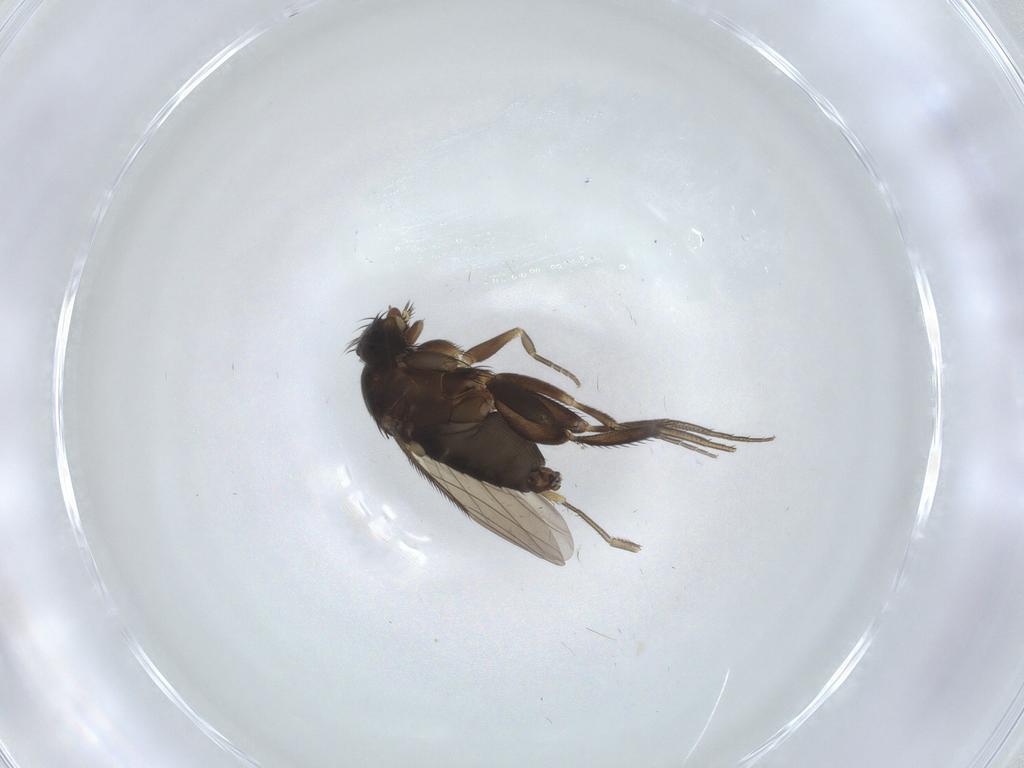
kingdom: Animalia
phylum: Arthropoda
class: Insecta
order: Diptera
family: Phoridae
